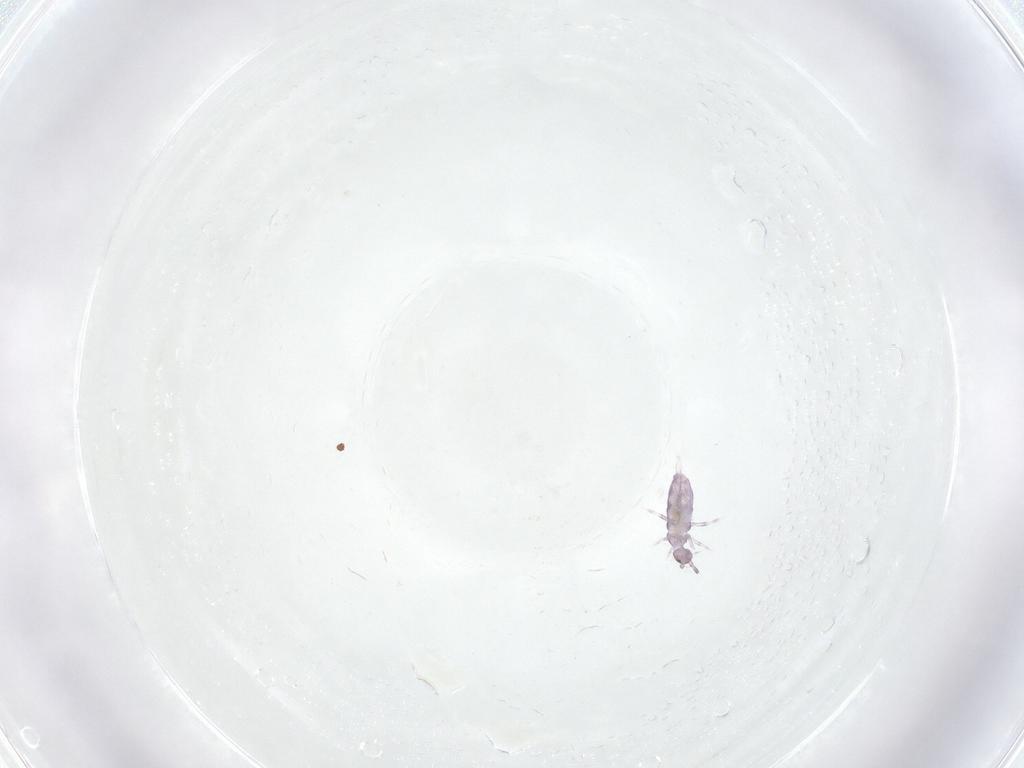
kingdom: Animalia
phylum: Arthropoda
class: Collembola
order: Entomobryomorpha
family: Entomobryidae
